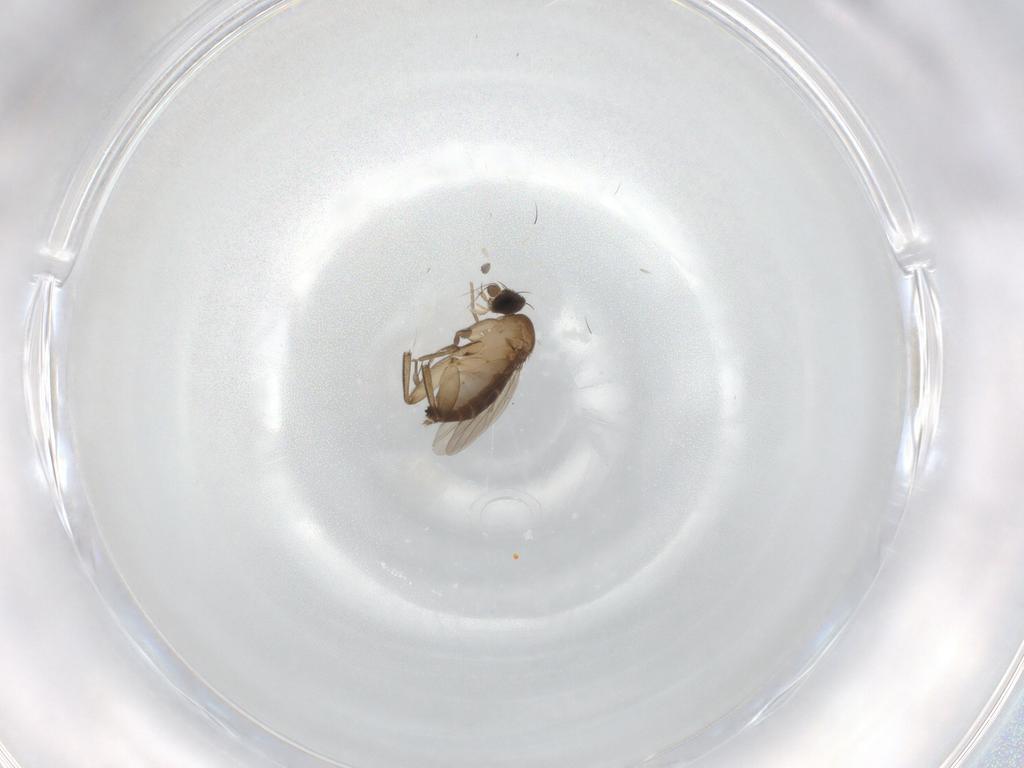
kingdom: Animalia
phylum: Arthropoda
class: Insecta
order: Diptera
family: Phoridae
